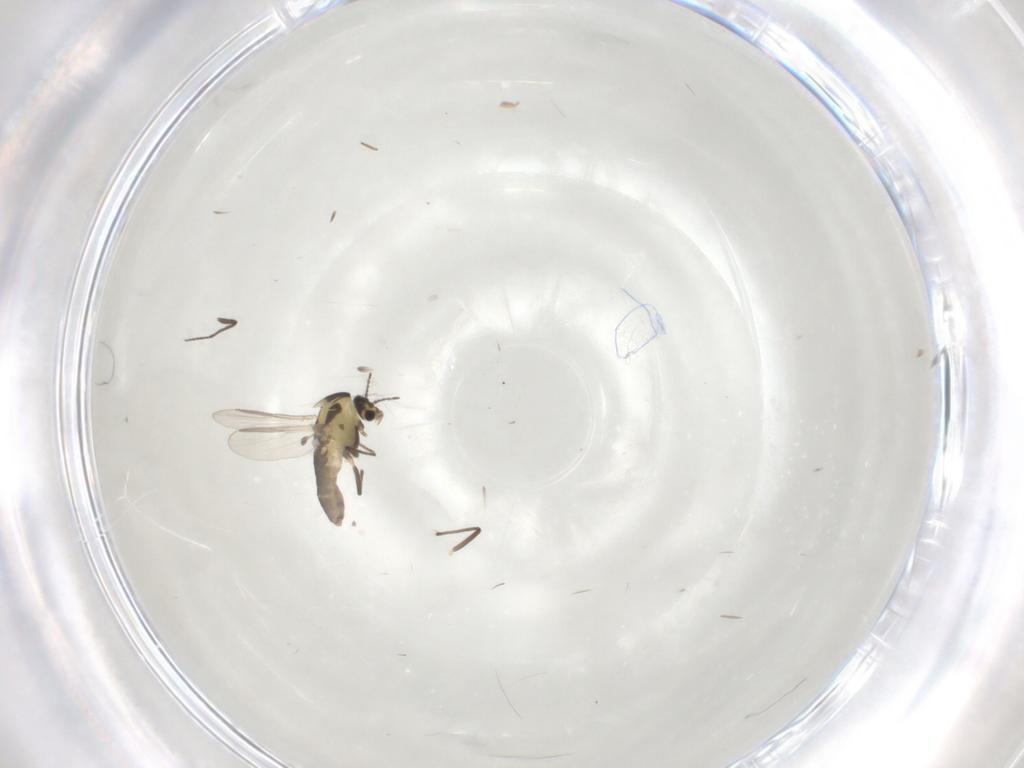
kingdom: Animalia
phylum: Arthropoda
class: Insecta
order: Diptera
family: Chironomidae
